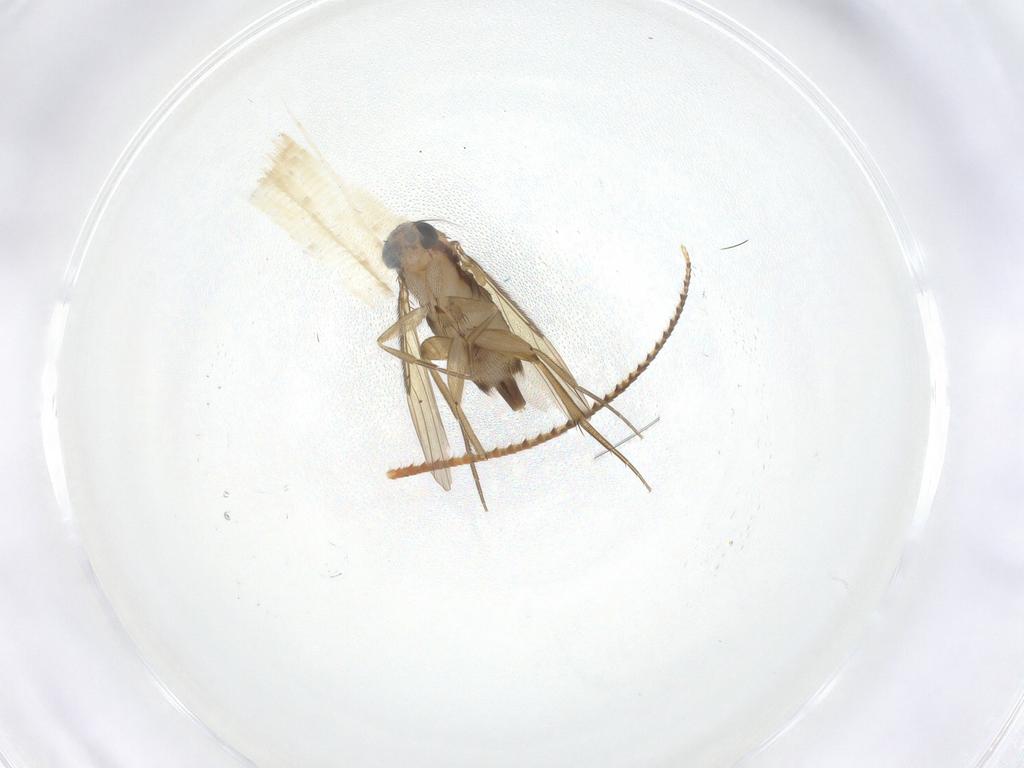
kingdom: Animalia
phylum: Arthropoda
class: Insecta
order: Diptera
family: Phoridae
